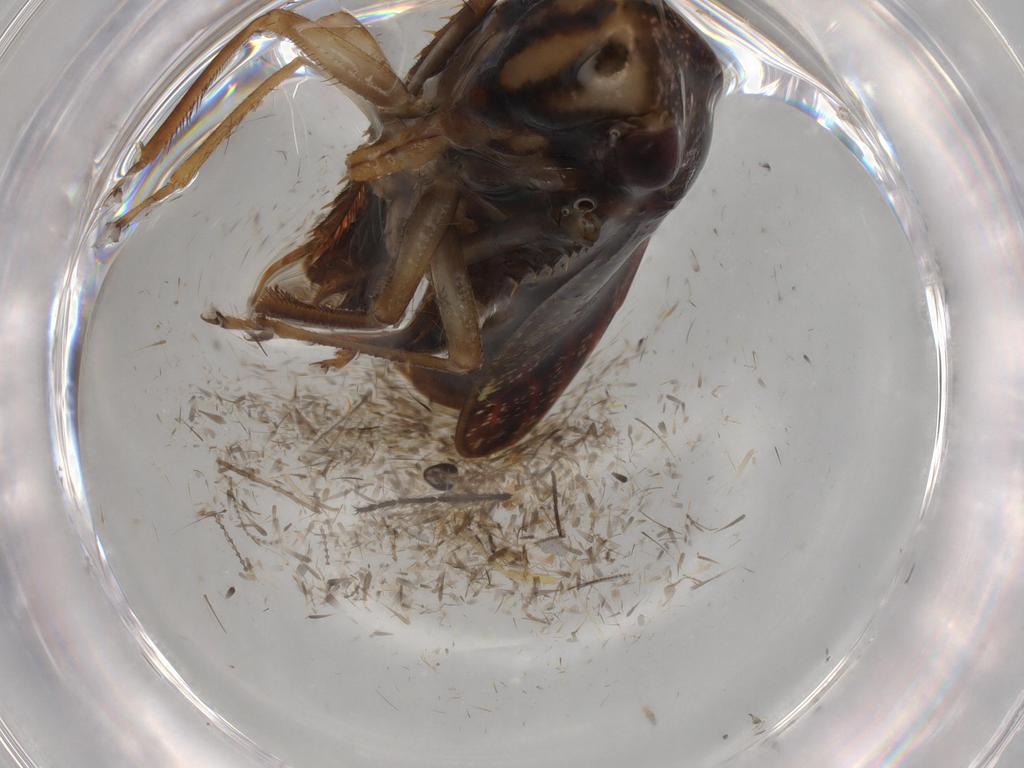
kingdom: Animalia
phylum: Arthropoda
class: Insecta
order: Hemiptera
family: Cicadellidae
